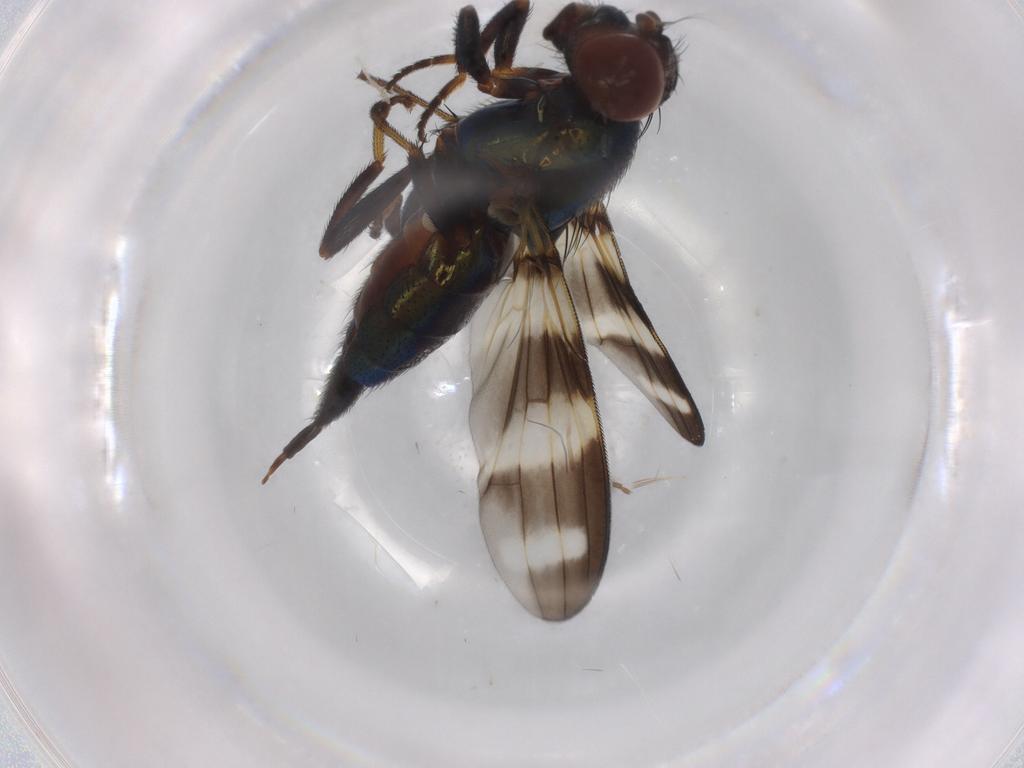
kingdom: Animalia
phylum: Arthropoda
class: Insecta
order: Diptera
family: Ulidiidae
